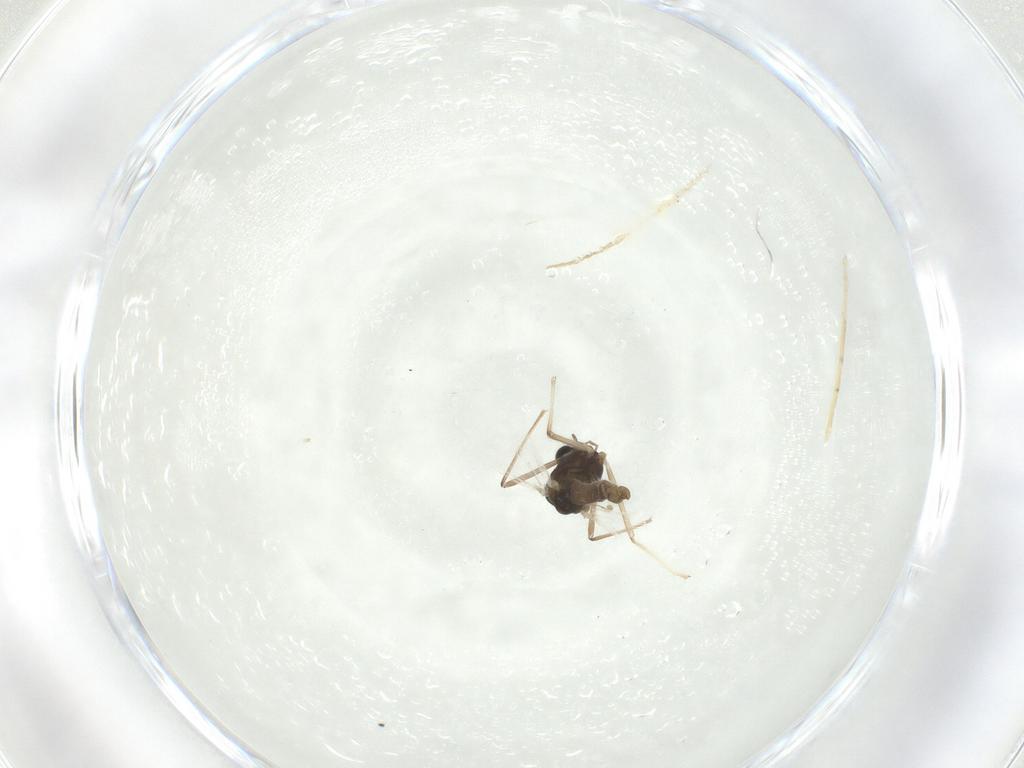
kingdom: Animalia
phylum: Arthropoda
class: Insecta
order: Diptera
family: Chironomidae
